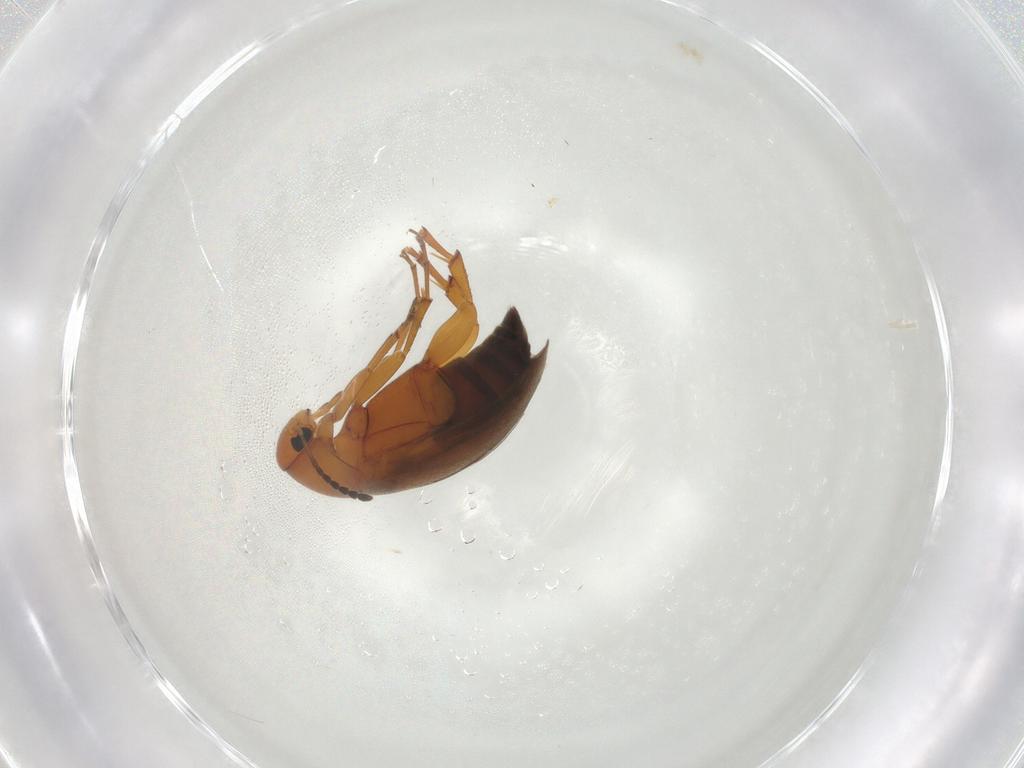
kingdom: Animalia
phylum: Arthropoda
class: Insecta
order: Coleoptera
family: Scraptiidae
